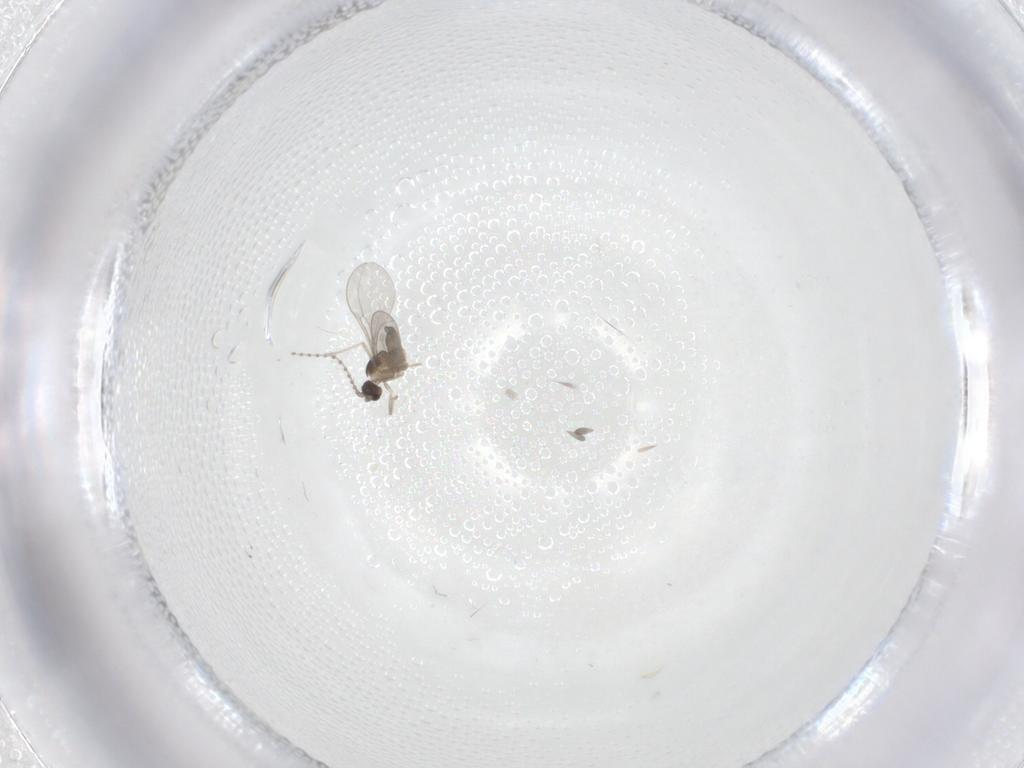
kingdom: Animalia
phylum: Arthropoda
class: Insecta
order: Diptera
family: Cecidomyiidae
